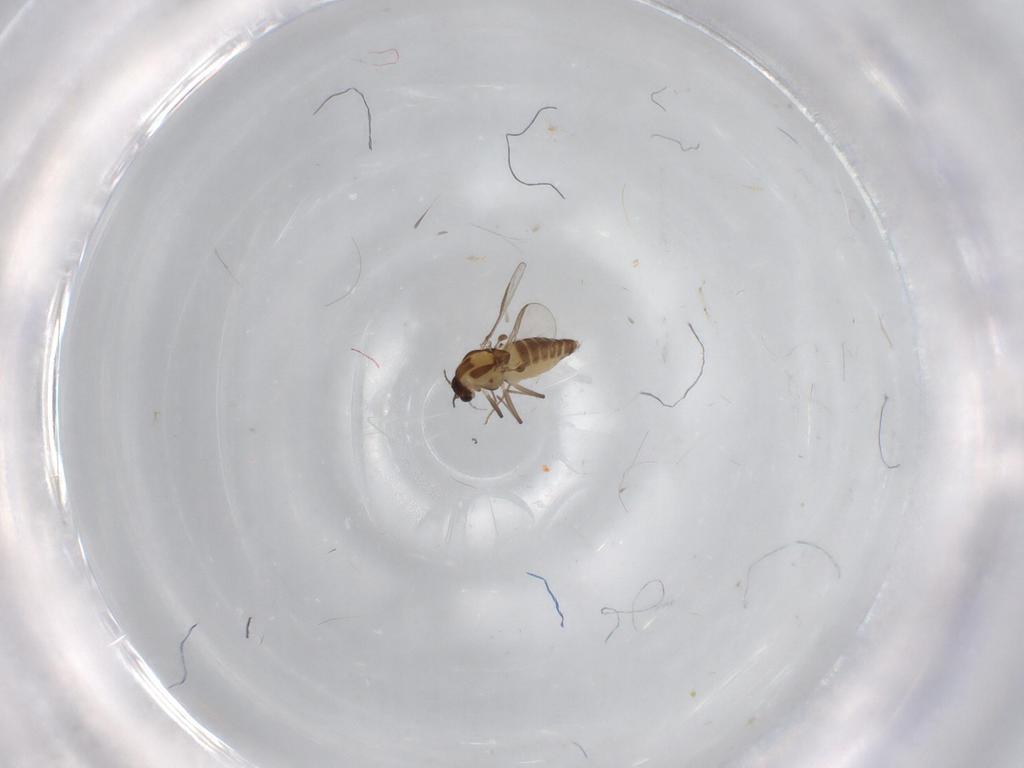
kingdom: Animalia
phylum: Arthropoda
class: Insecta
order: Diptera
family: Chironomidae
